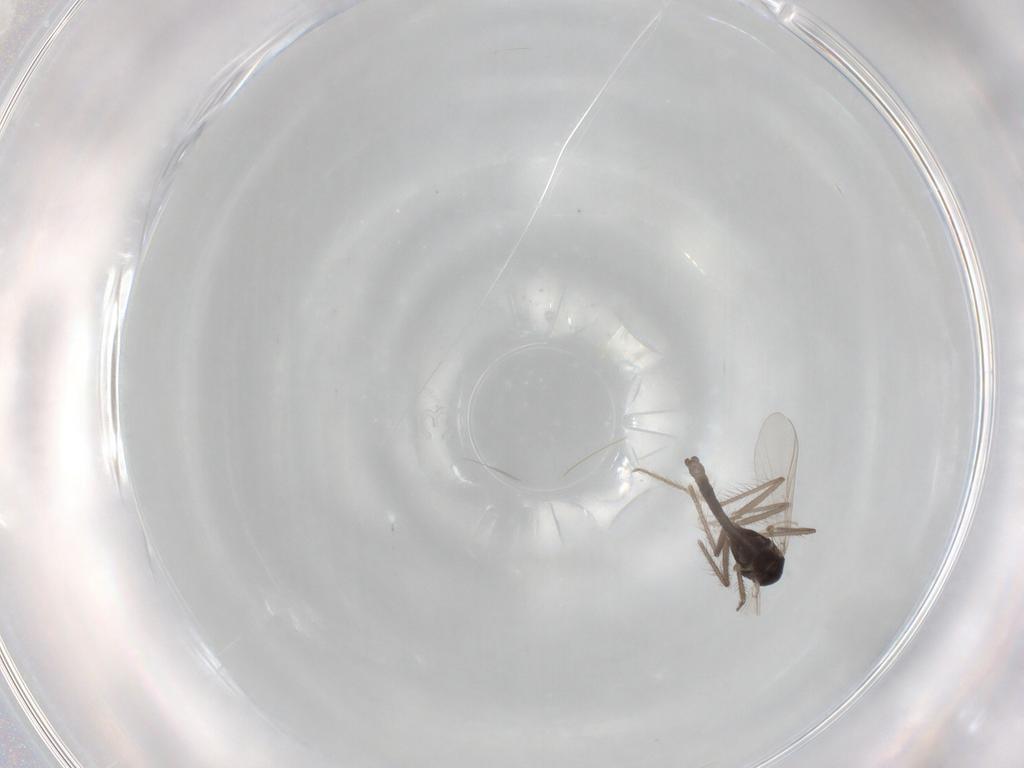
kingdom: Animalia
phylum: Arthropoda
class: Insecta
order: Diptera
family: Chironomidae
